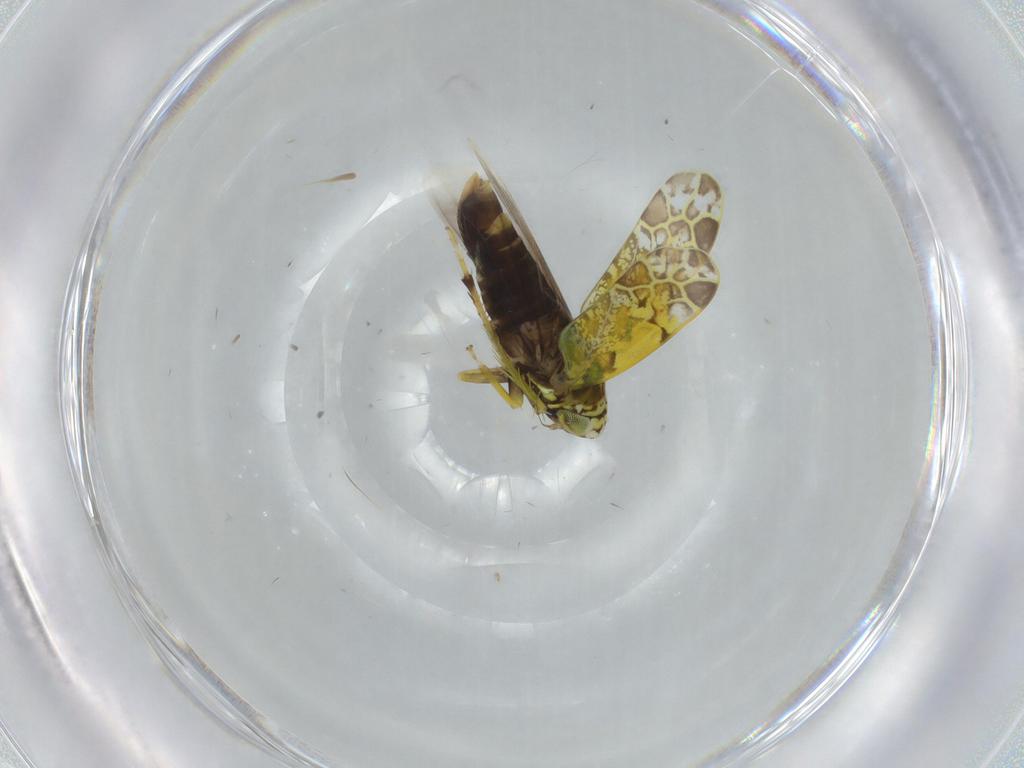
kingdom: Animalia
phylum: Arthropoda
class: Insecta
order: Hemiptera
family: Cicadellidae
